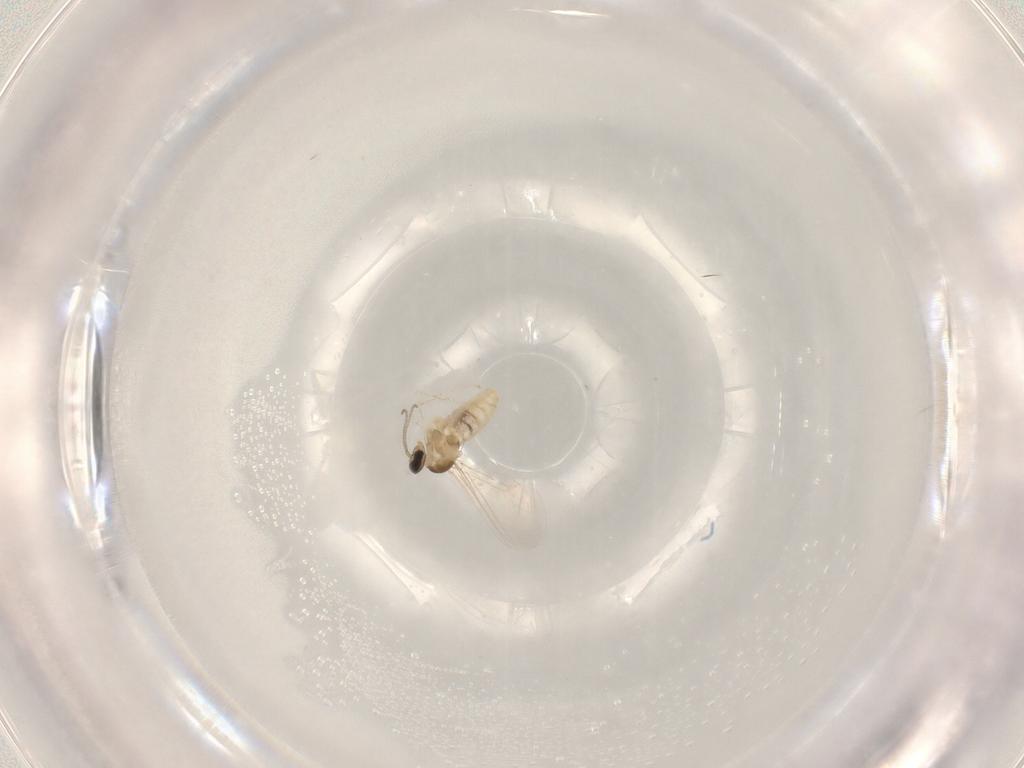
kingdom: Animalia
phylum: Arthropoda
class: Insecta
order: Diptera
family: Cecidomyiidae
